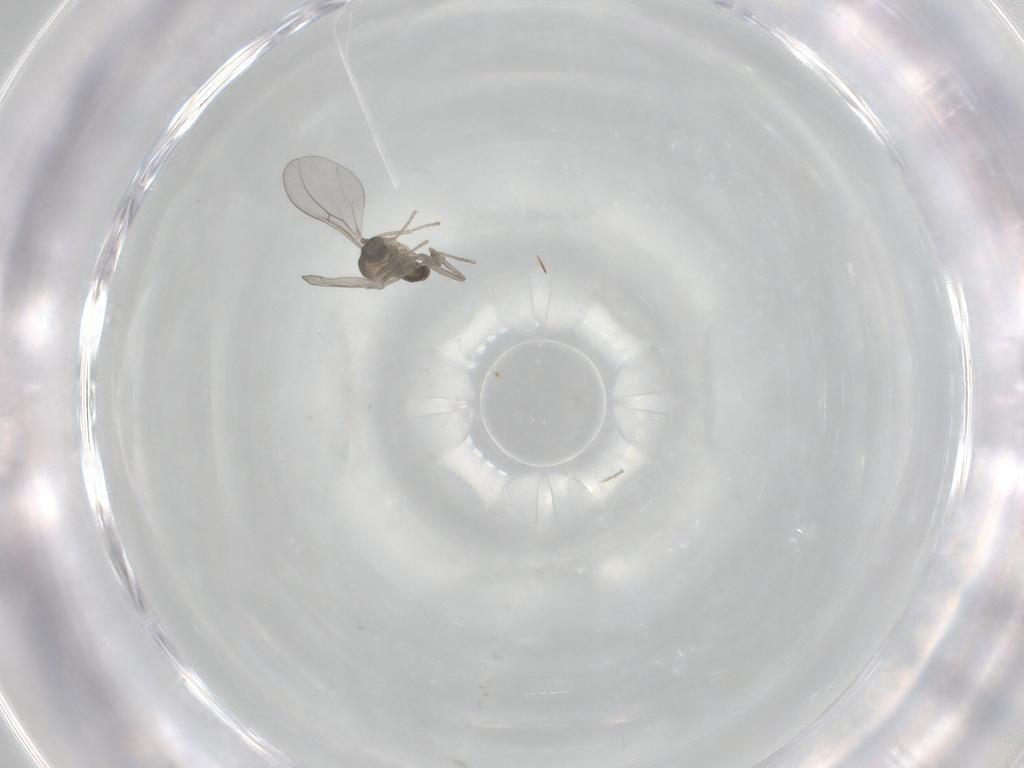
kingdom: Animalia
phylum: Arthropoda
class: Insecta
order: Diptera
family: Cecidomyiidae
